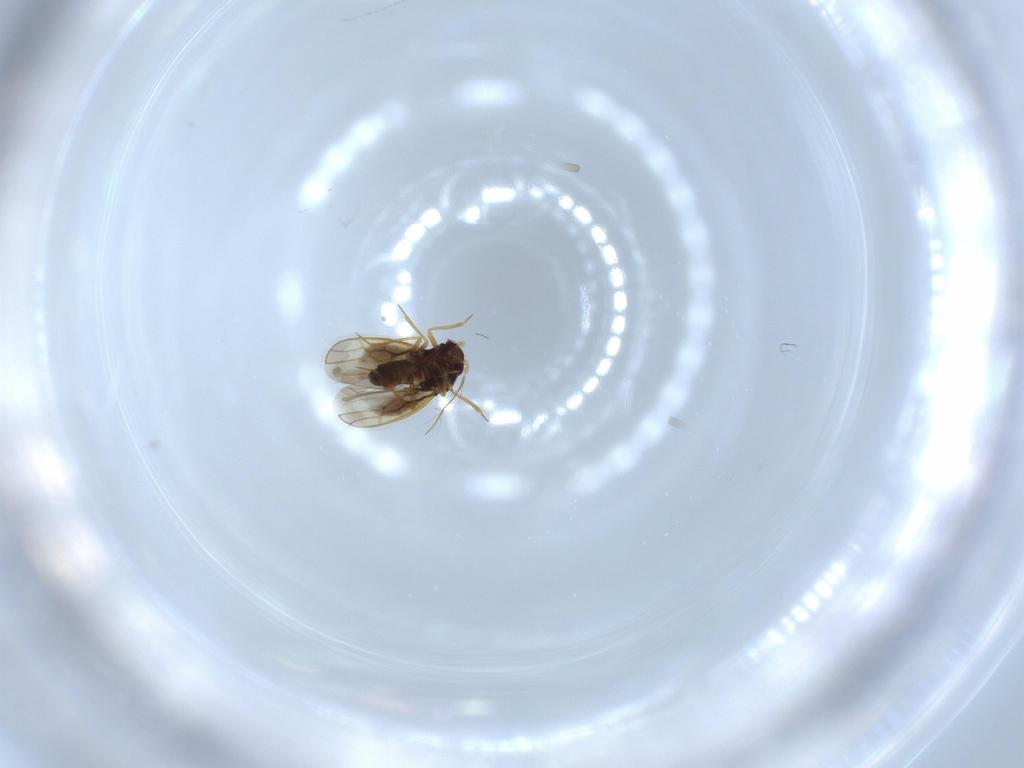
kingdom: Animalia
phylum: Arthropoda
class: Insecta
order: Hemiptera
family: Schizopteridae
